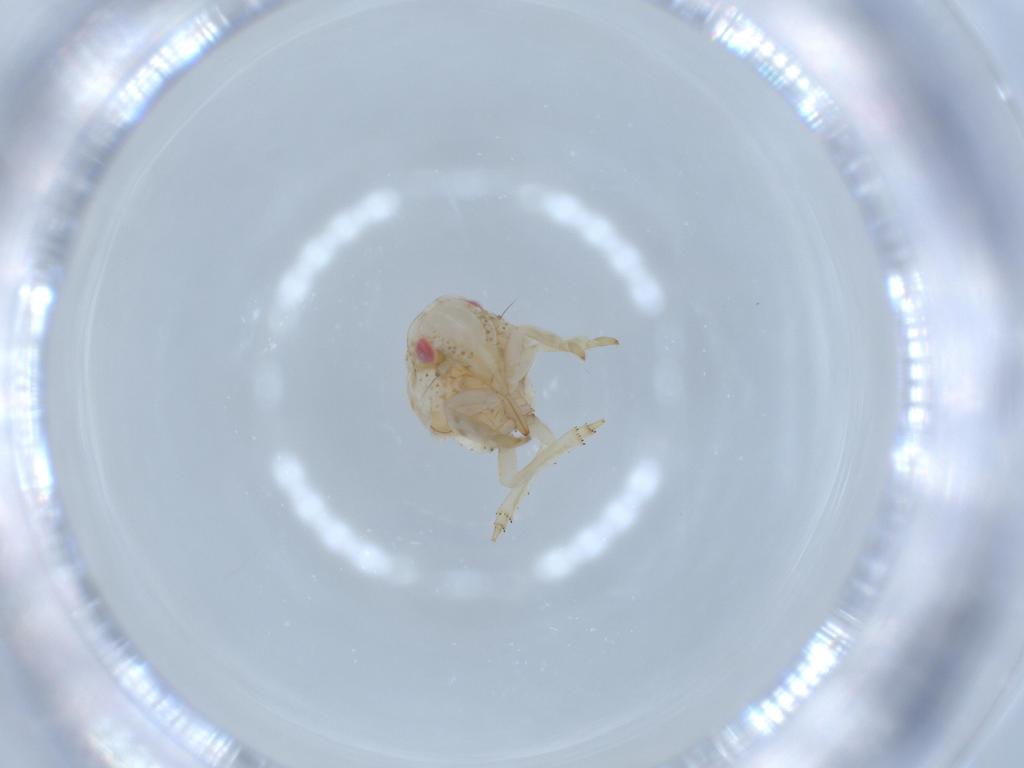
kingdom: Animalia
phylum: Arthropoda
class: Insecta
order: Hemiptera
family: Acanaloniidae
